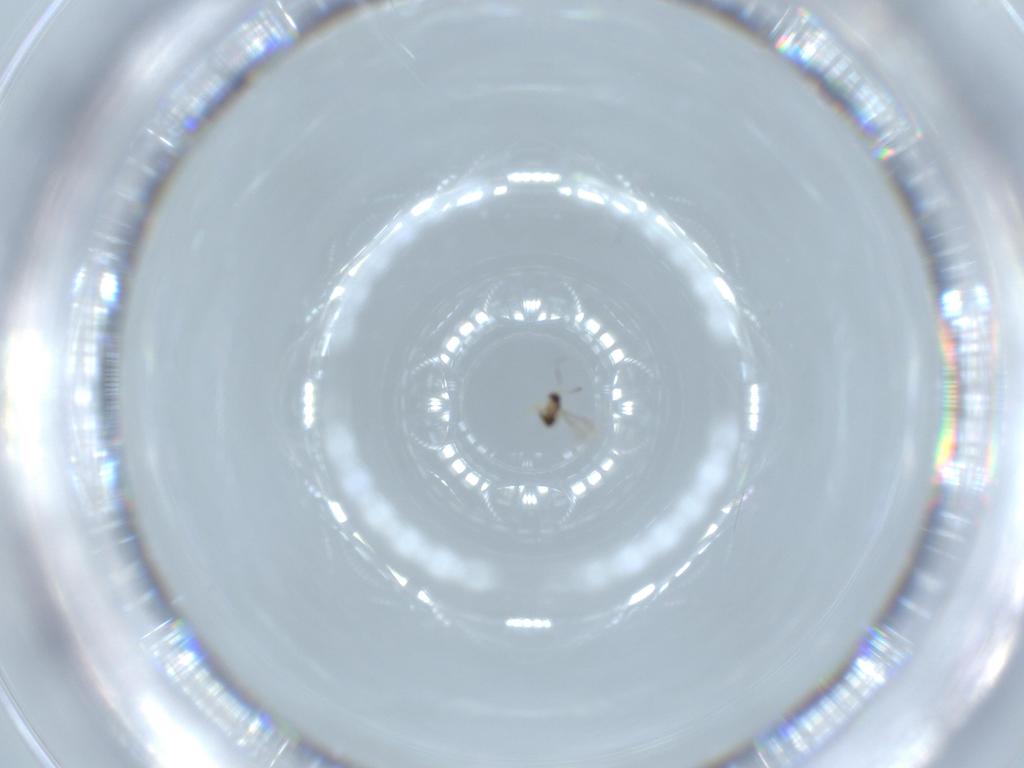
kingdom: Animalia
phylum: Arthropoda
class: Insecta
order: Hymenoptera
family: Mymaridae
